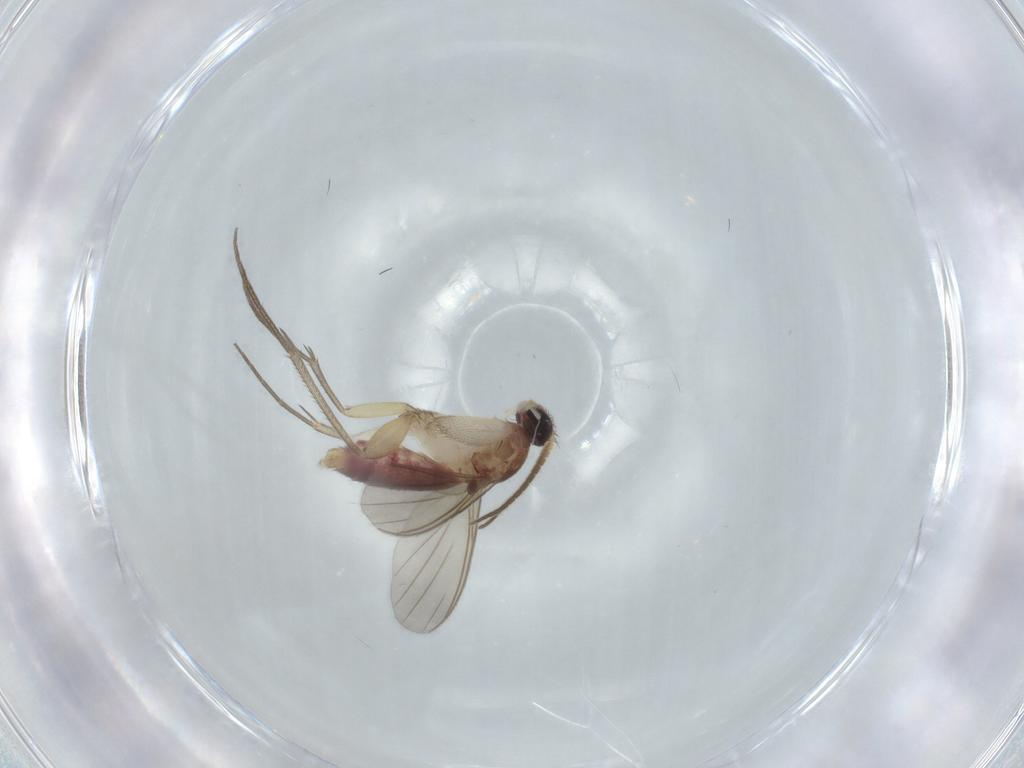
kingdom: Animalia
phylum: Arthropoda
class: Insecta
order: Diptera
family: Mycetophilidae
